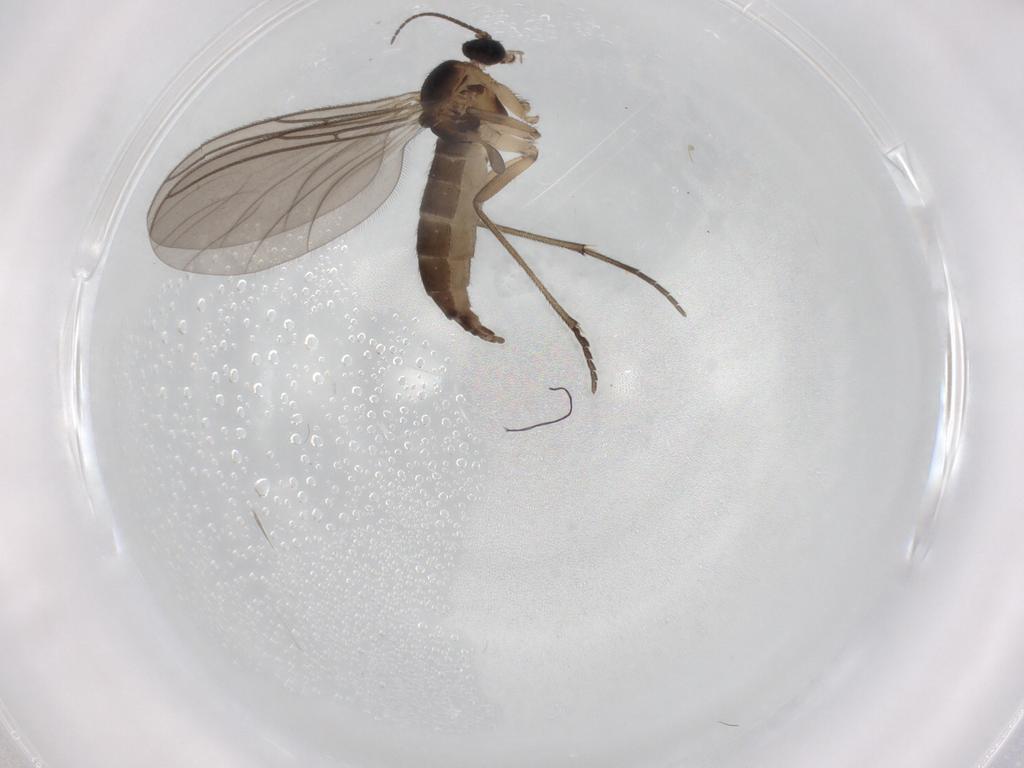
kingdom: Animalia
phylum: Arthropoda
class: Insecta
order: Diptera
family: Sciaridae
